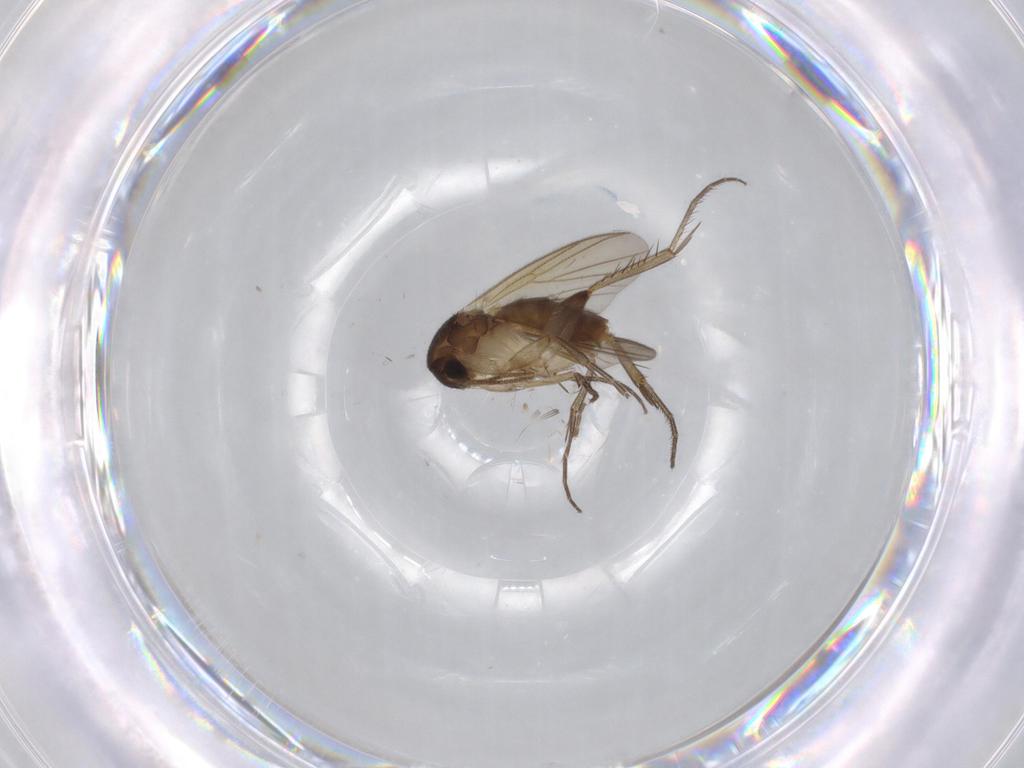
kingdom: Animalia
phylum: Arthropoda
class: Insecta
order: Diptera
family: Mycetophilidae
